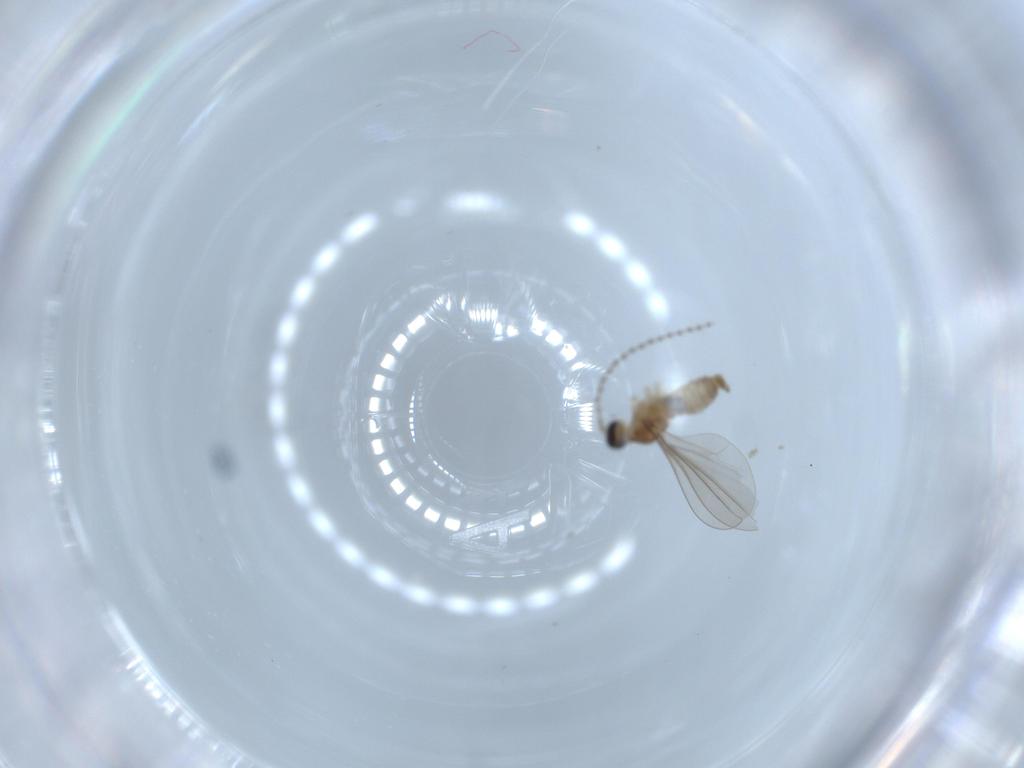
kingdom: Animalia
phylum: Arthropoda
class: Insecta
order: Diptera
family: Cecidomyiidae
